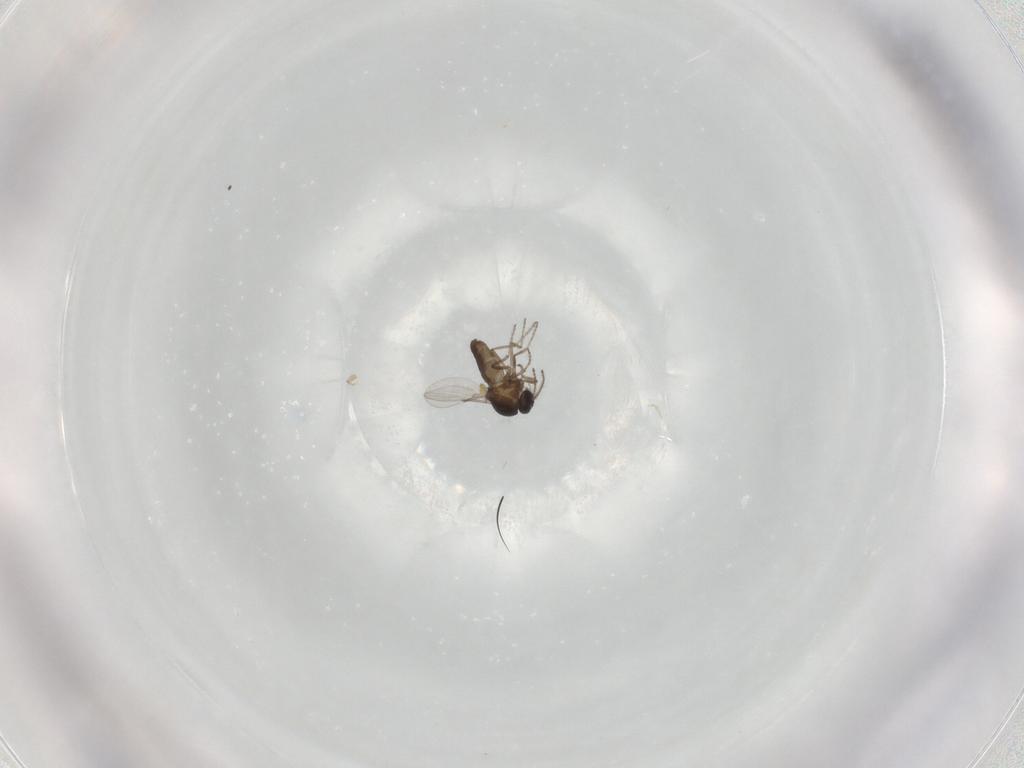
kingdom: Animalia
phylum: Arthropoda
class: Insecta
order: Diptera
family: Ceratopogonidae
